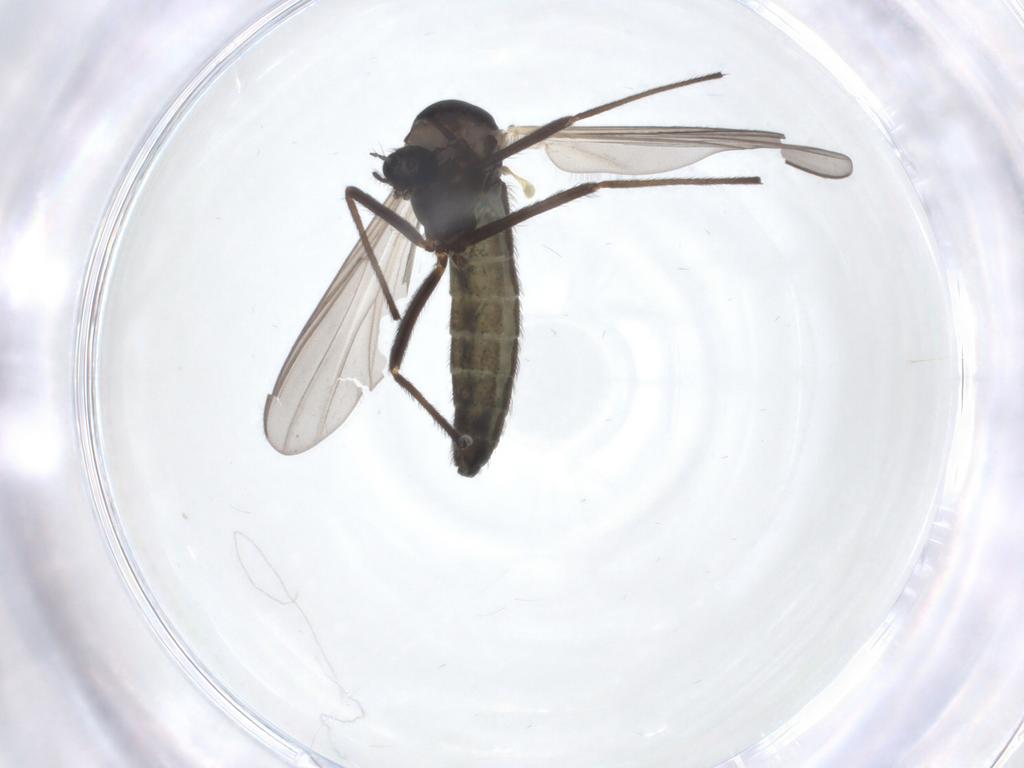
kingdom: Animalia
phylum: Arthropoda
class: Insecta
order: Diptera
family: Chironomidae
